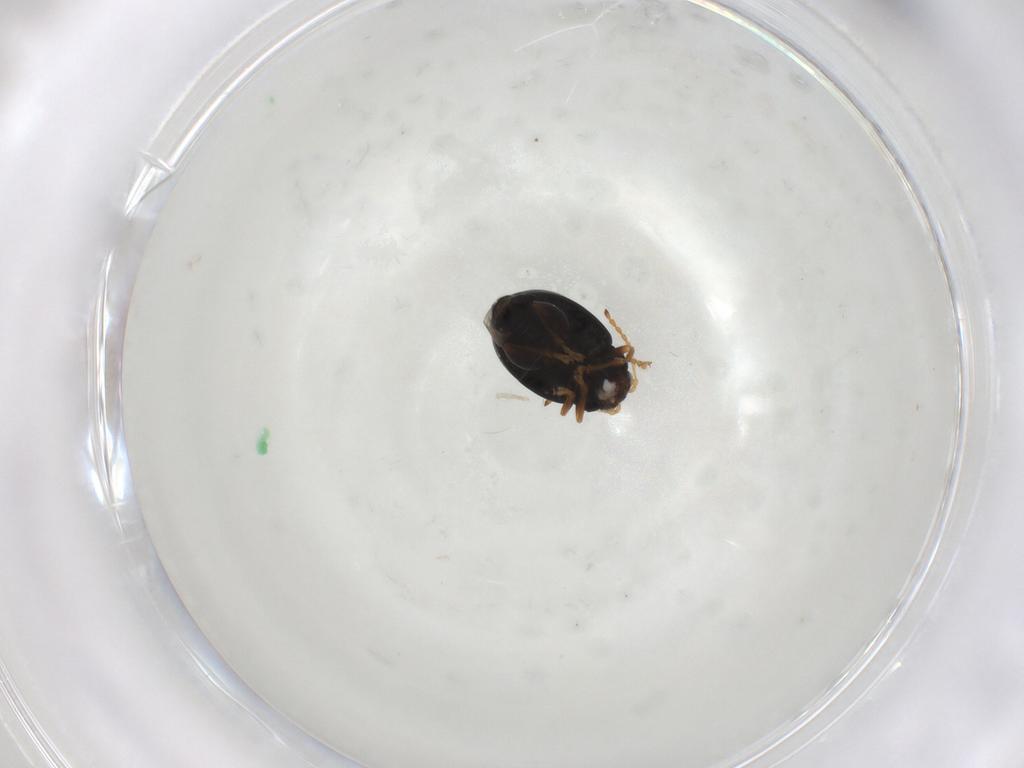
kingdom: Animalia
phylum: Arthropoda
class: Insecta
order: Coleoptera
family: Chrysomelidae
